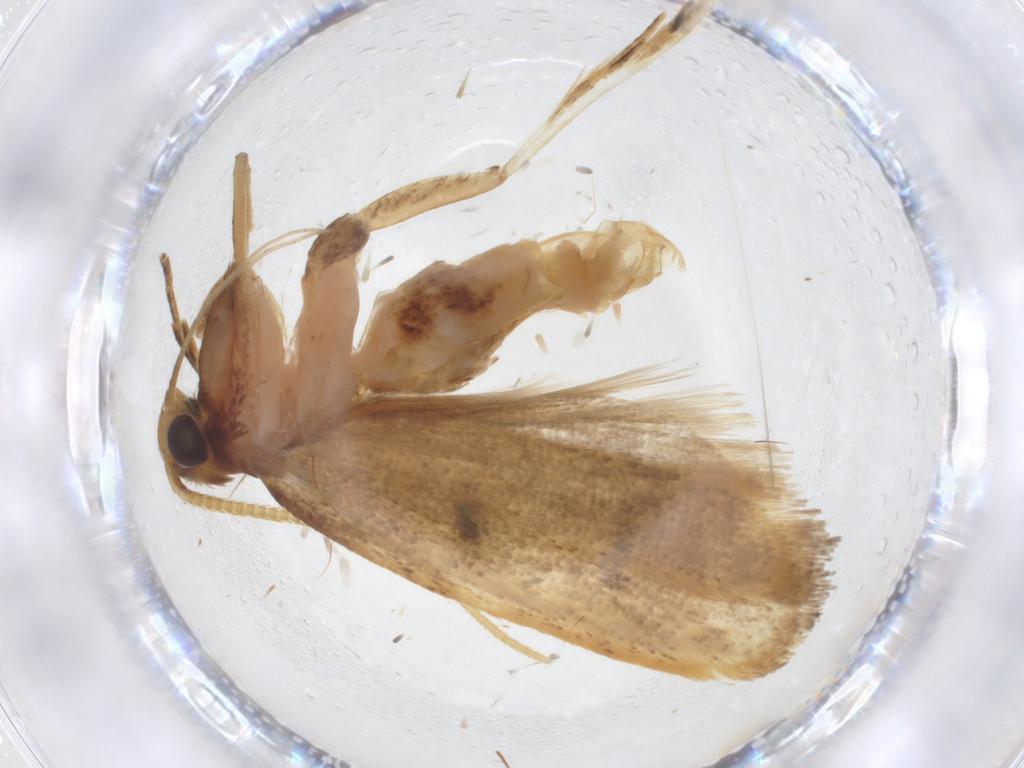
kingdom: Animalia
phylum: Arthropoda
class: Insecta
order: Lepidoptera
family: Lecithoceridae
